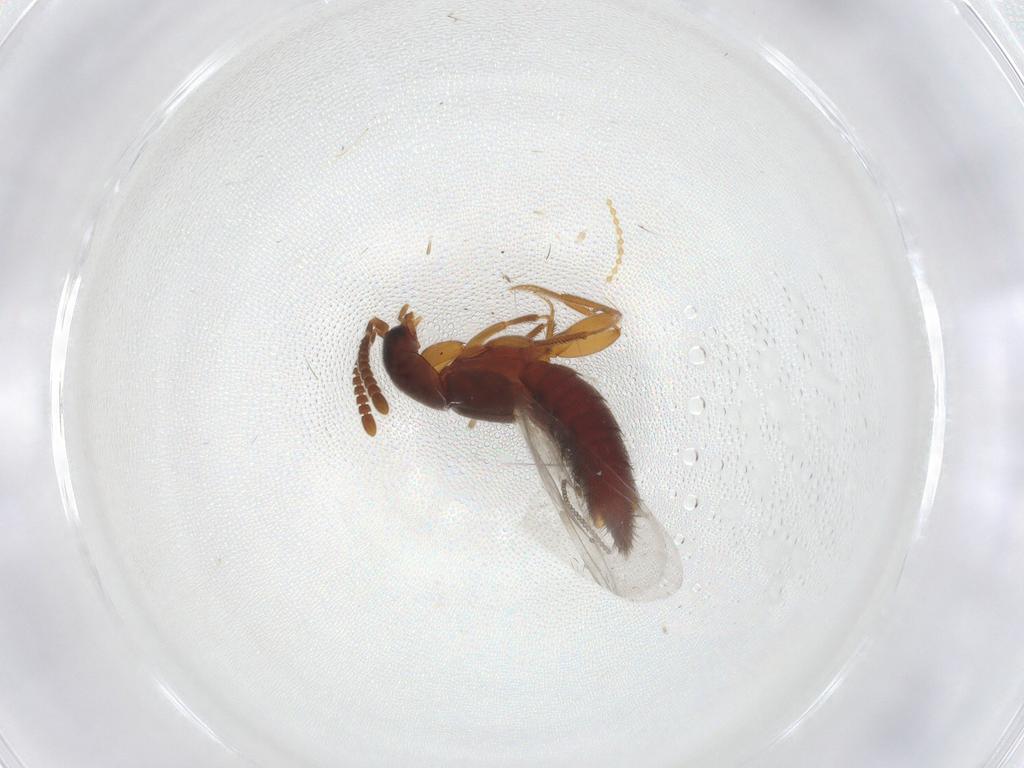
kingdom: Animalia
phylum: Arthropoda
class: Insecta
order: Coleoptera
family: Staphylinidae
